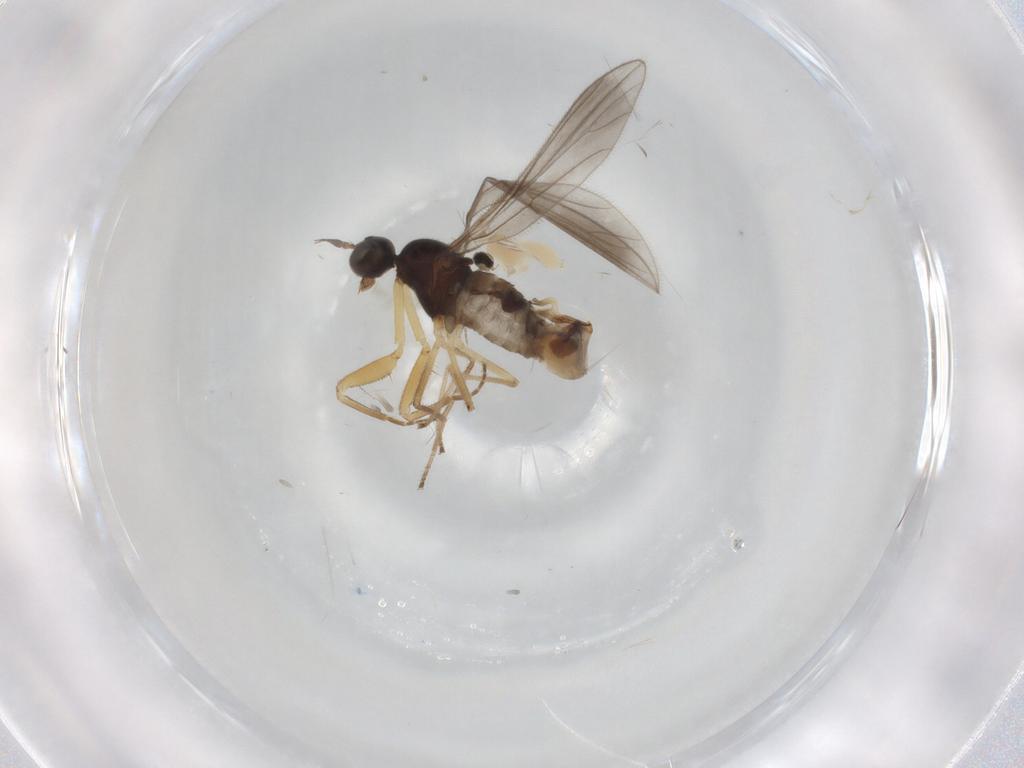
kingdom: Animalia
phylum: Arthropoda
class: Insecta
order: Diptera
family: Cecidomyiidae
